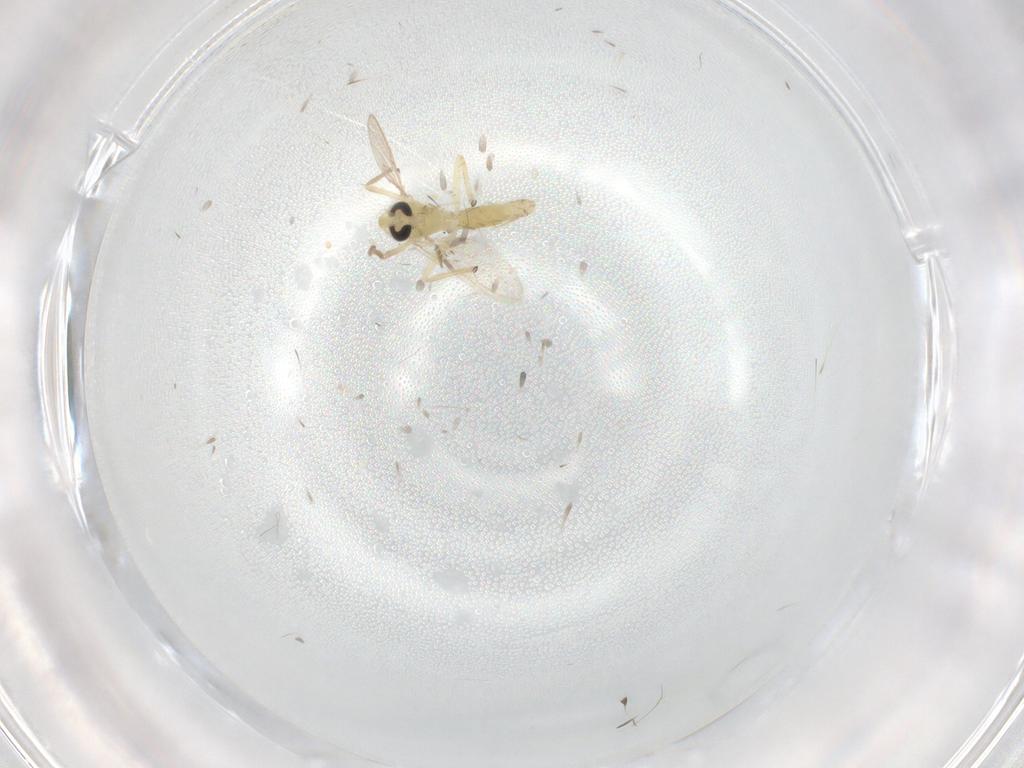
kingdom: Animalia
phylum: Arthropoda
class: Insecta
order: Diptera
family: Chironomidae
